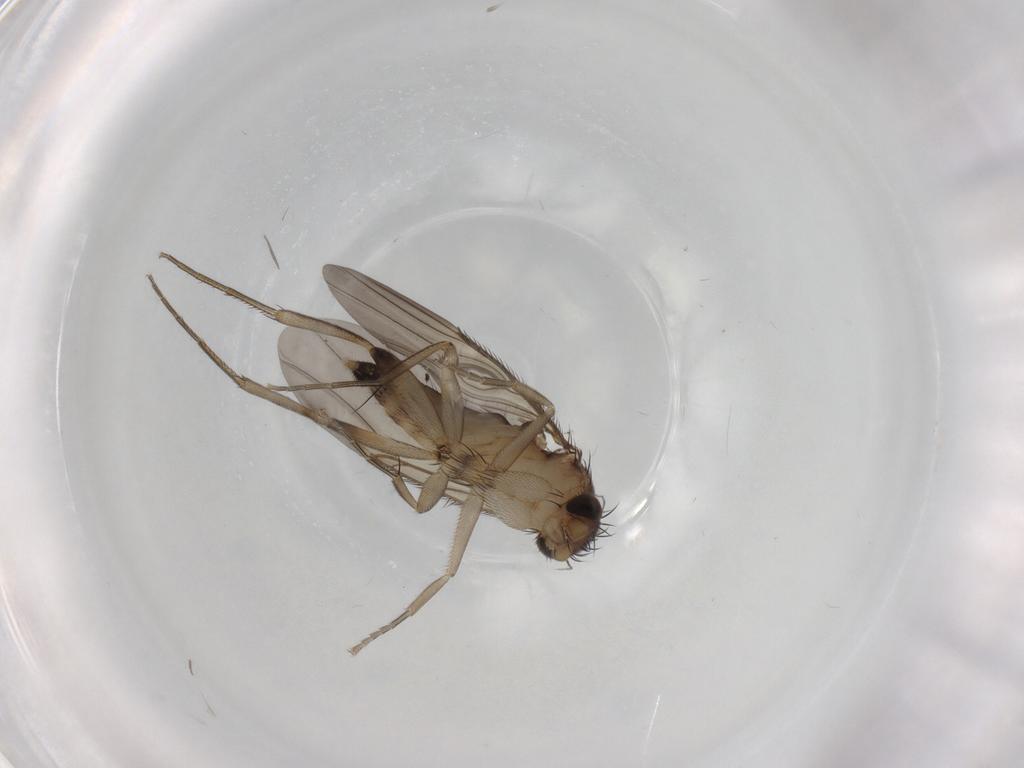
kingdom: Animalia
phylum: Arthropoda
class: Insecta
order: Diptera
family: Phoridae
